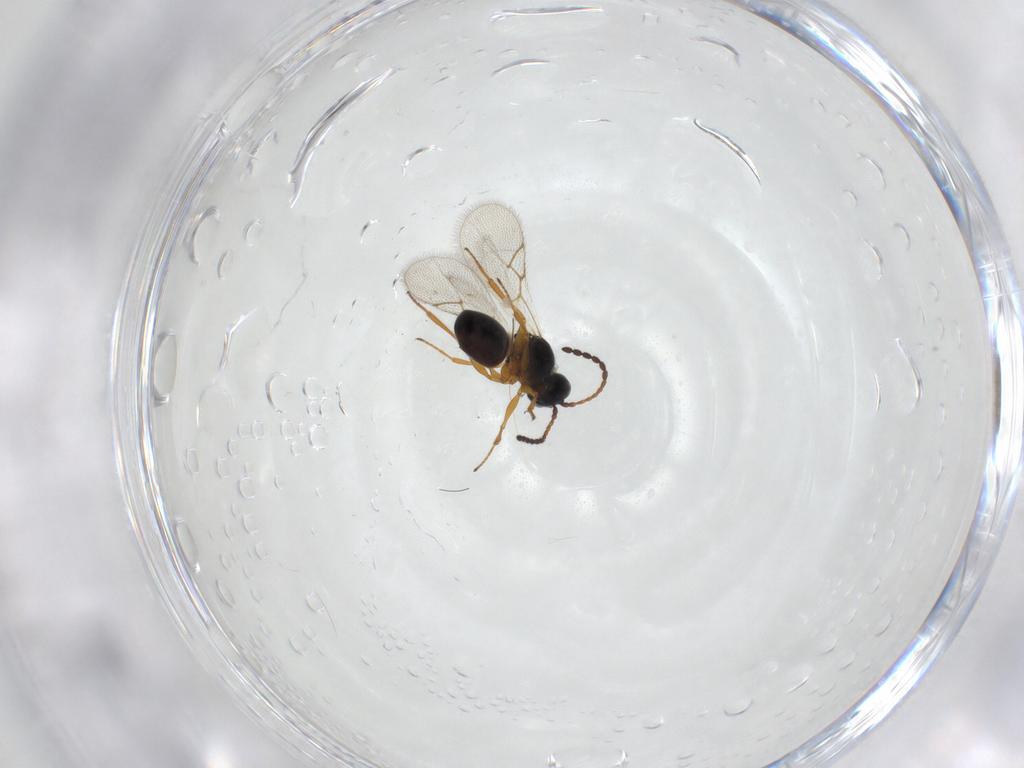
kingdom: Animalia
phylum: Arthropoda
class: Insecta
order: Hymenoptera
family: Figitidae
